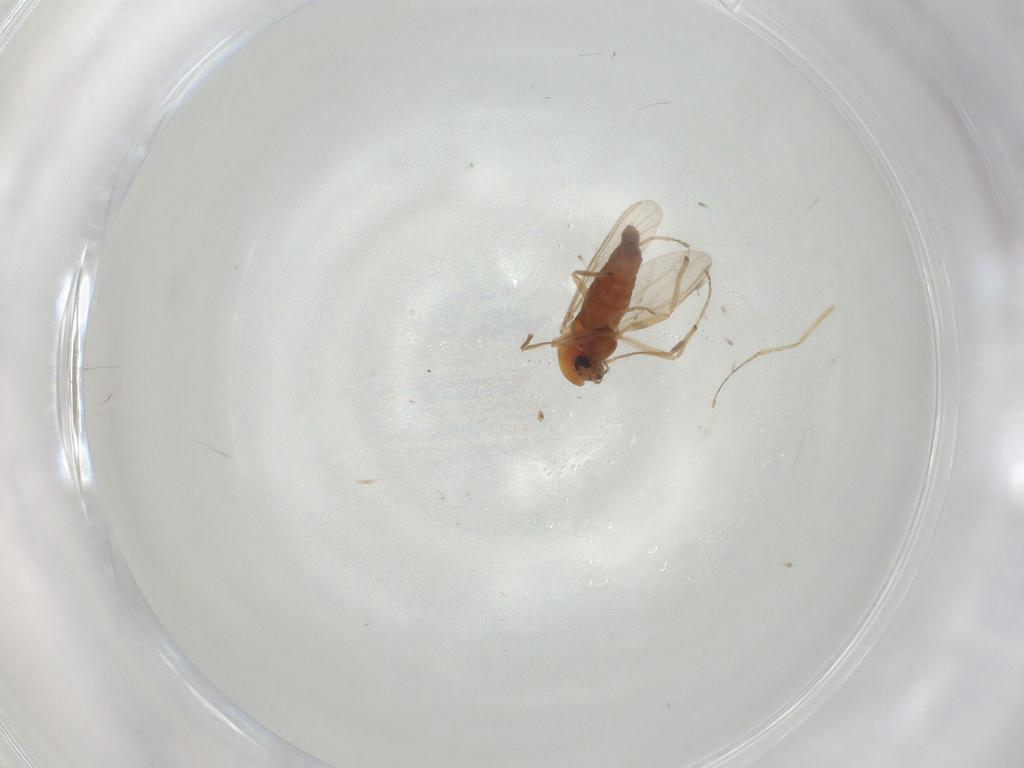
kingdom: Animalia
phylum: Arthropoda
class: Insecta
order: Diptera
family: Chironomidae
